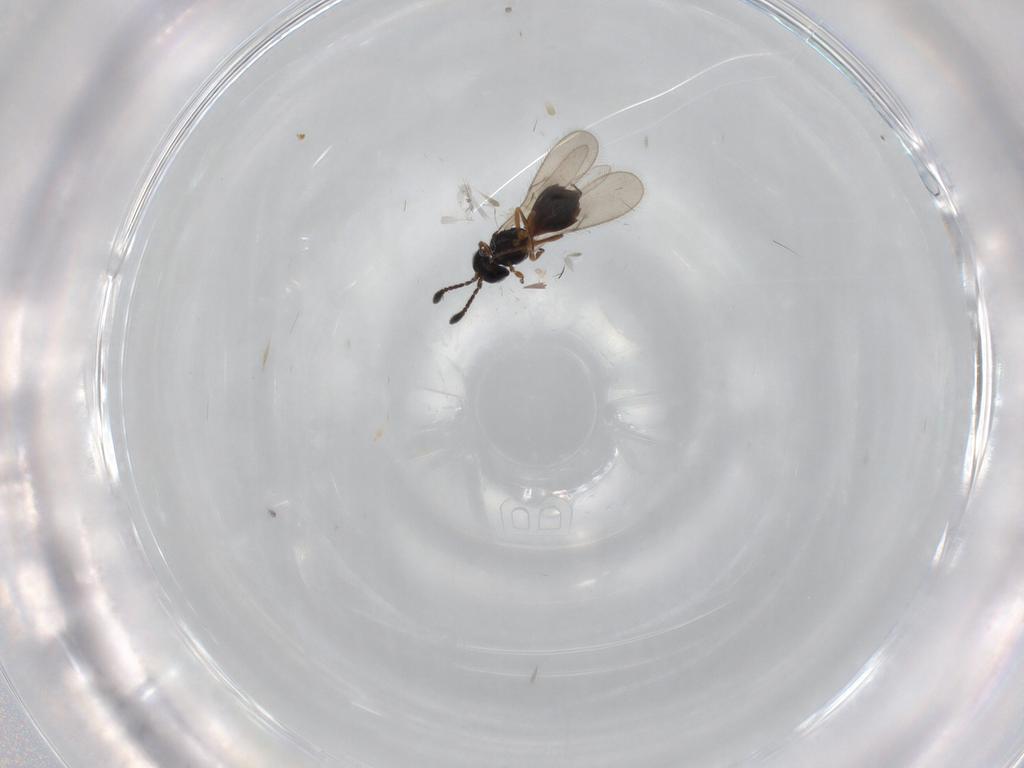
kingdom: Animalia
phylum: Arthropoda
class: Insecta
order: Hymenoptera
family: Scelionidae
